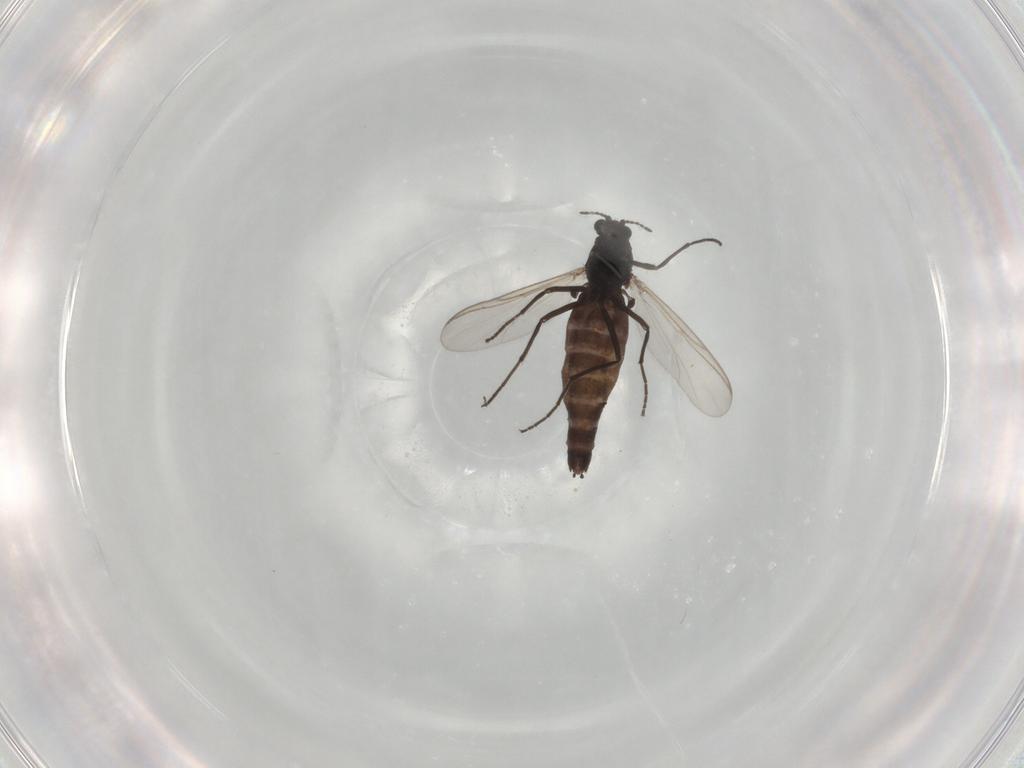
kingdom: Animalia
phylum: Arthropoda
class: Insecta
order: Diptera
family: Chironomidae
